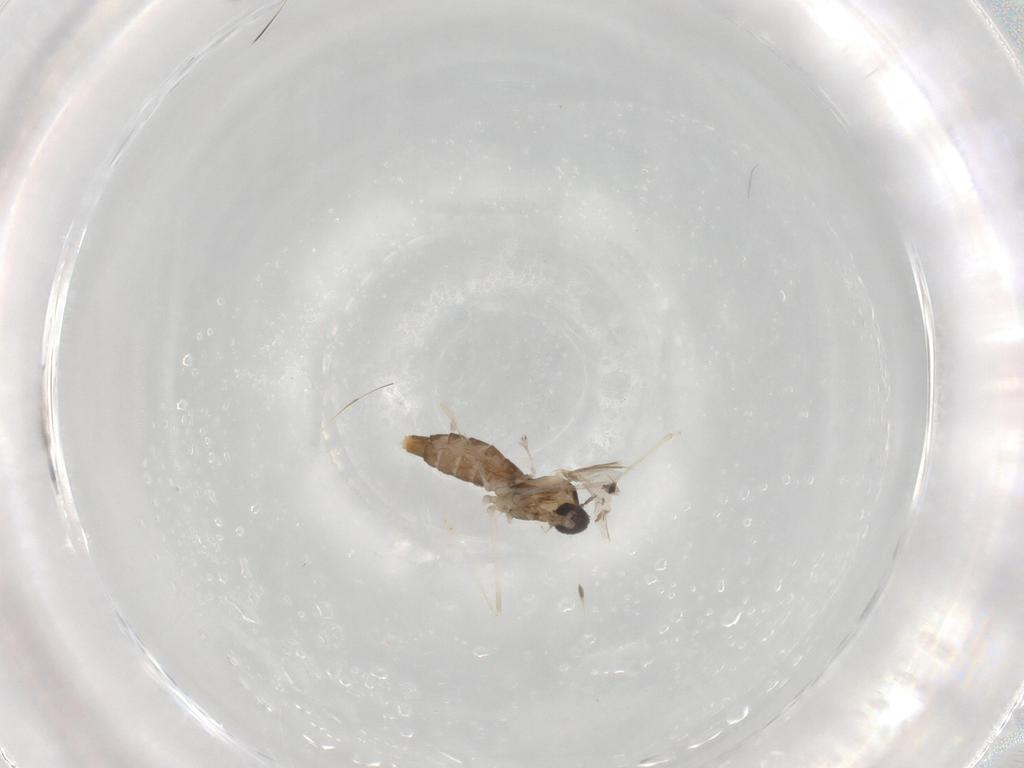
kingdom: Animalia
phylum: Arthropoda
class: Insecta
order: Diptera
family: Cecidomyiidae
